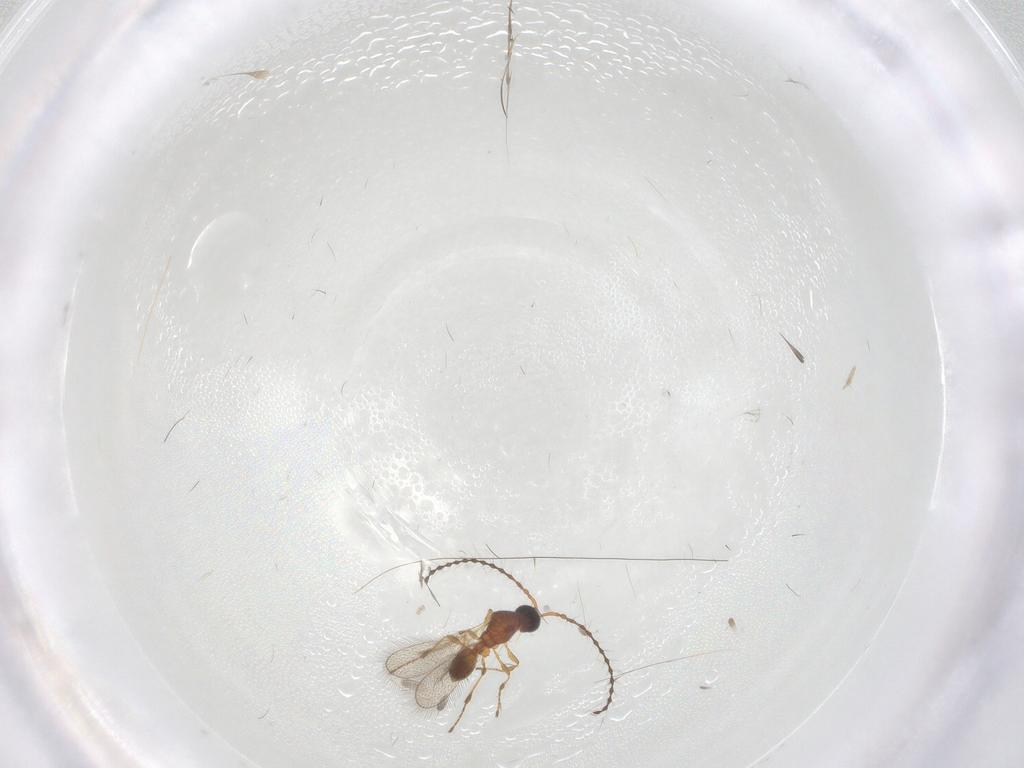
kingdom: Animalia
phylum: Arthropoda
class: Insecta
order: Hymenoptera
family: Diapriidae
